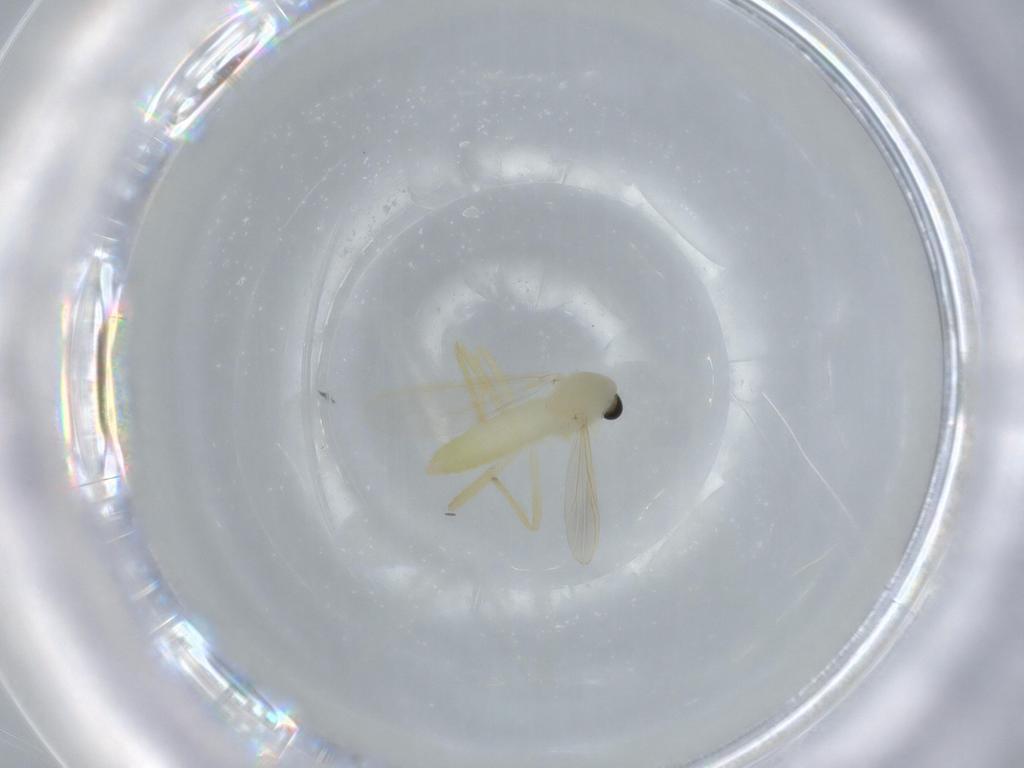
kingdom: Animalia
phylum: Arthropoda
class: Insecta
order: Diptera
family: Chironomidae
